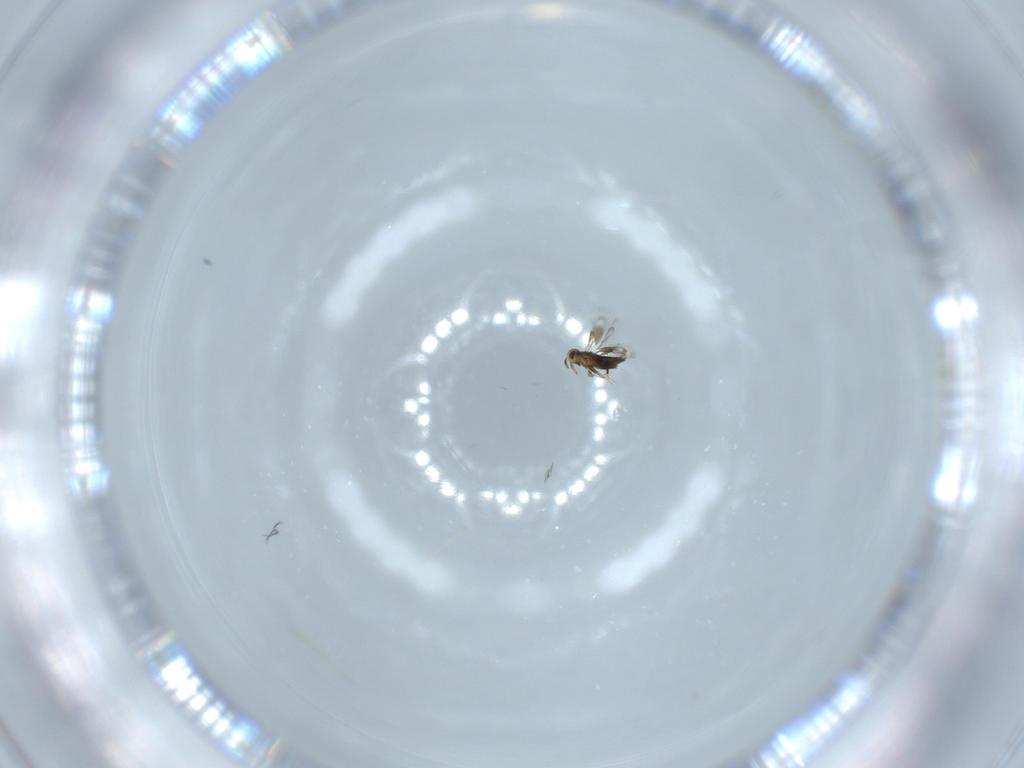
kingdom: Animalia
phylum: Arthropoda
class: Insecta
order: Hymenoptera
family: Signiphoridae
